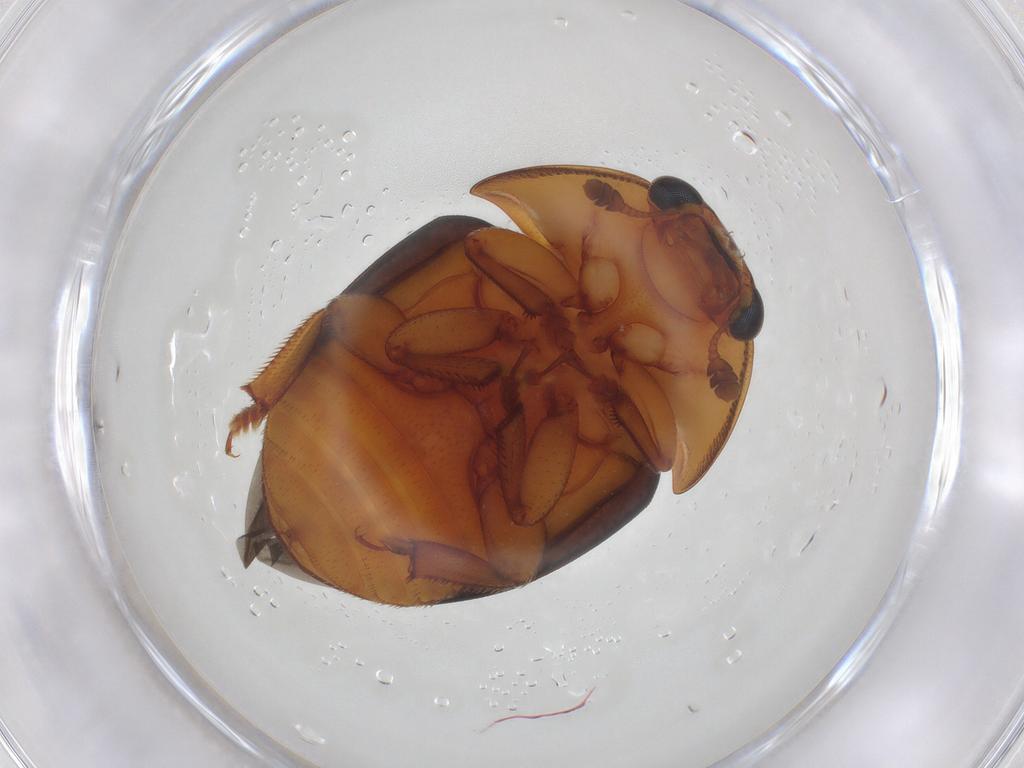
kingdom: Animalia
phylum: Arthropoda
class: Insecta
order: Coleoptera
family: Nitidulidae
